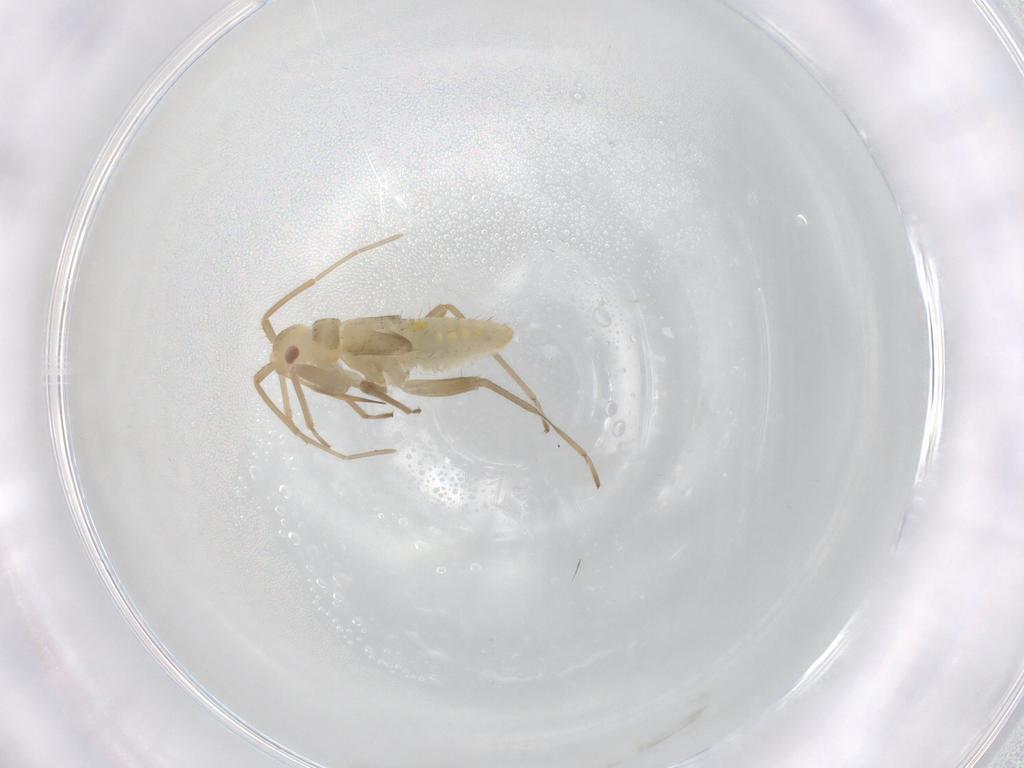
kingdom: Animalia
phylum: Arthropoda
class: Insecta
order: Hemiptera
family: Miridae
